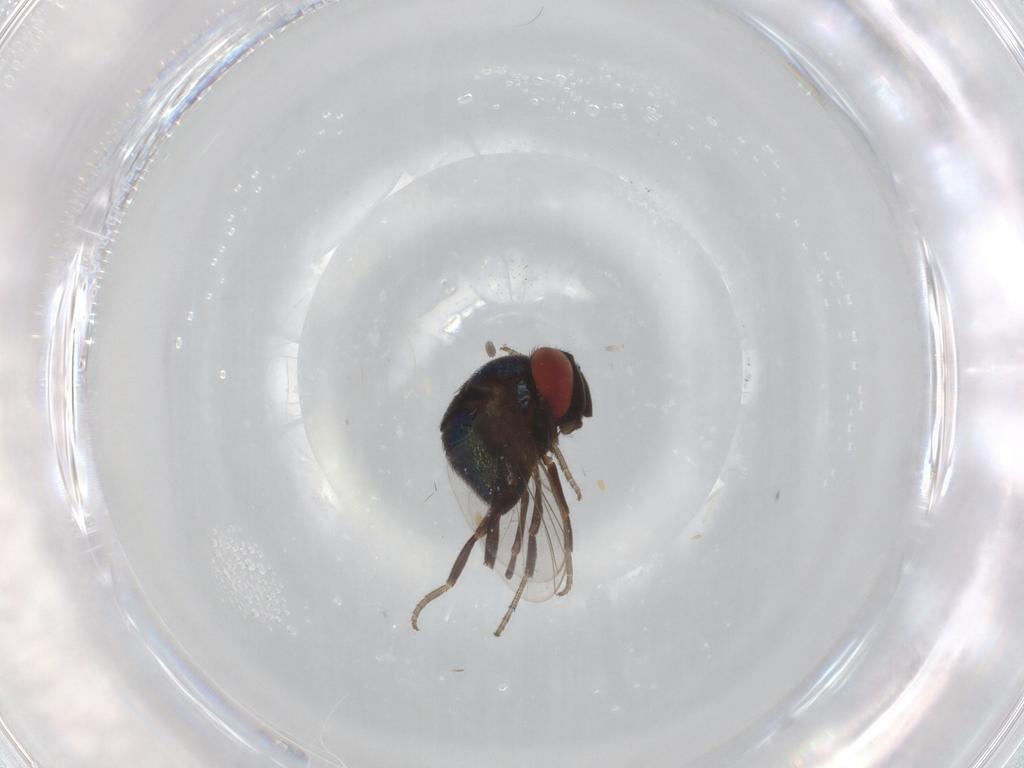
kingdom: Animalia
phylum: Arthropoda
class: Insecta
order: Diptera
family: Cryptochetidae
